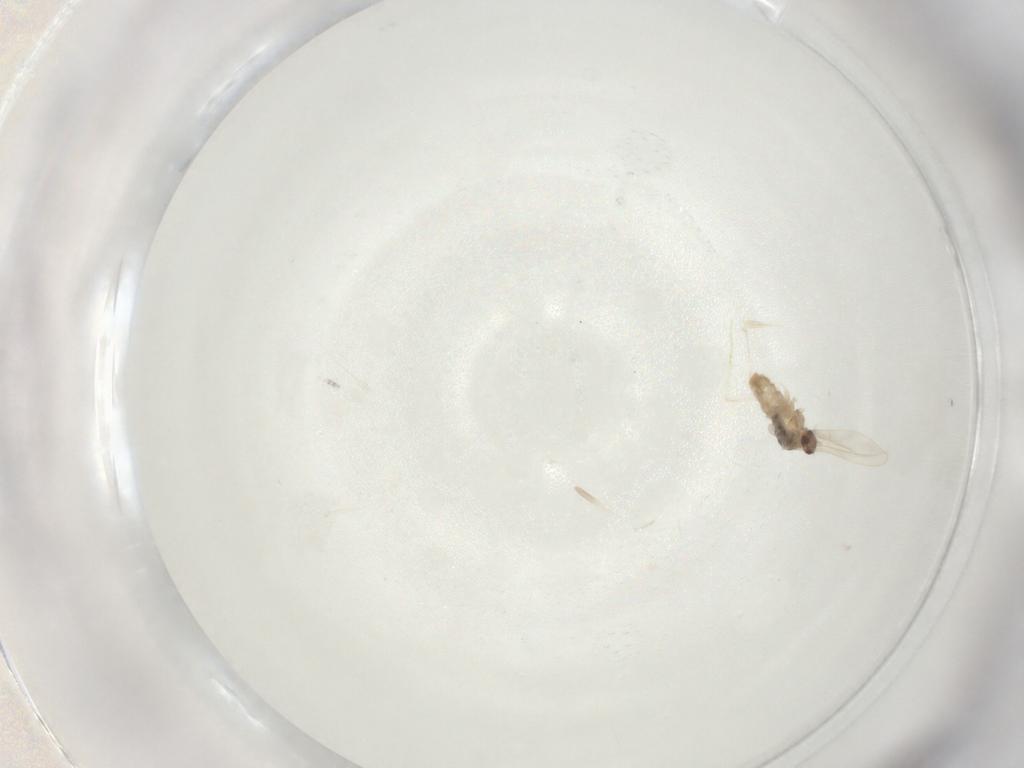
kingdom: Animalia
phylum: Arthropoda
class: Insecta
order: Diptera
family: Cecidomyiidae
